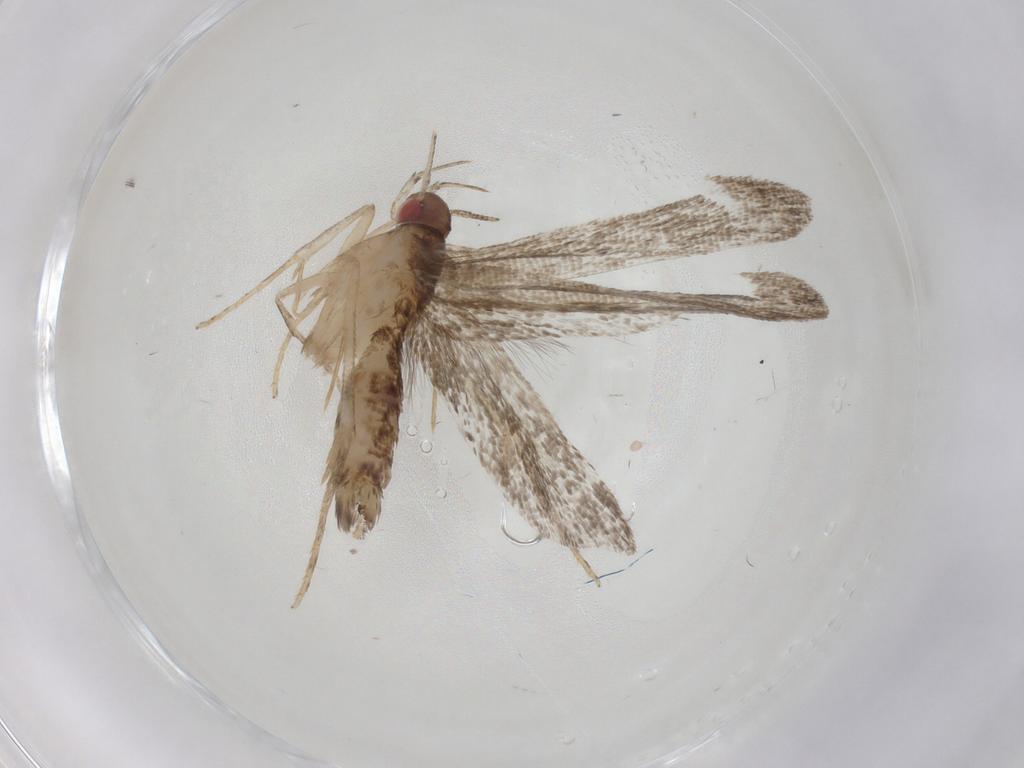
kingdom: Animalia
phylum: Arthropoda
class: Insecta
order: Lepidoptera
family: Gelechiidae
